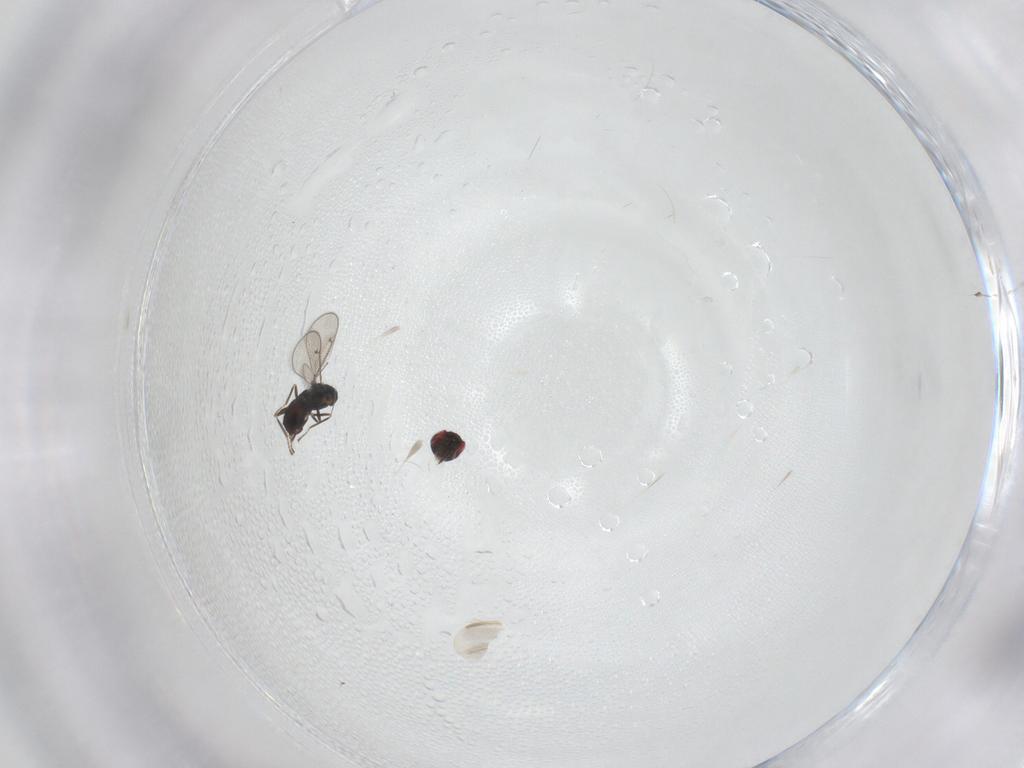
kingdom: Animalia
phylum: Arthropoda
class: Insecta
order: Hymenoptera
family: Eulophidae
